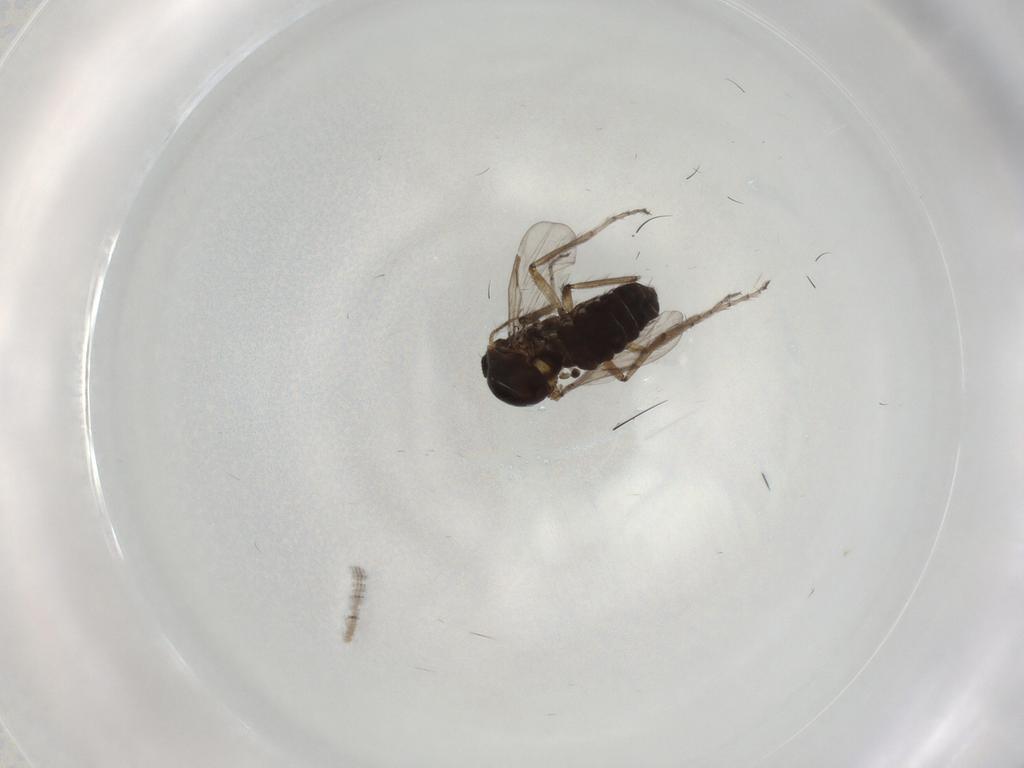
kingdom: Animalia
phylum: Arthropoda
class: Insecta
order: Diptera
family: Ceratopogonidae
